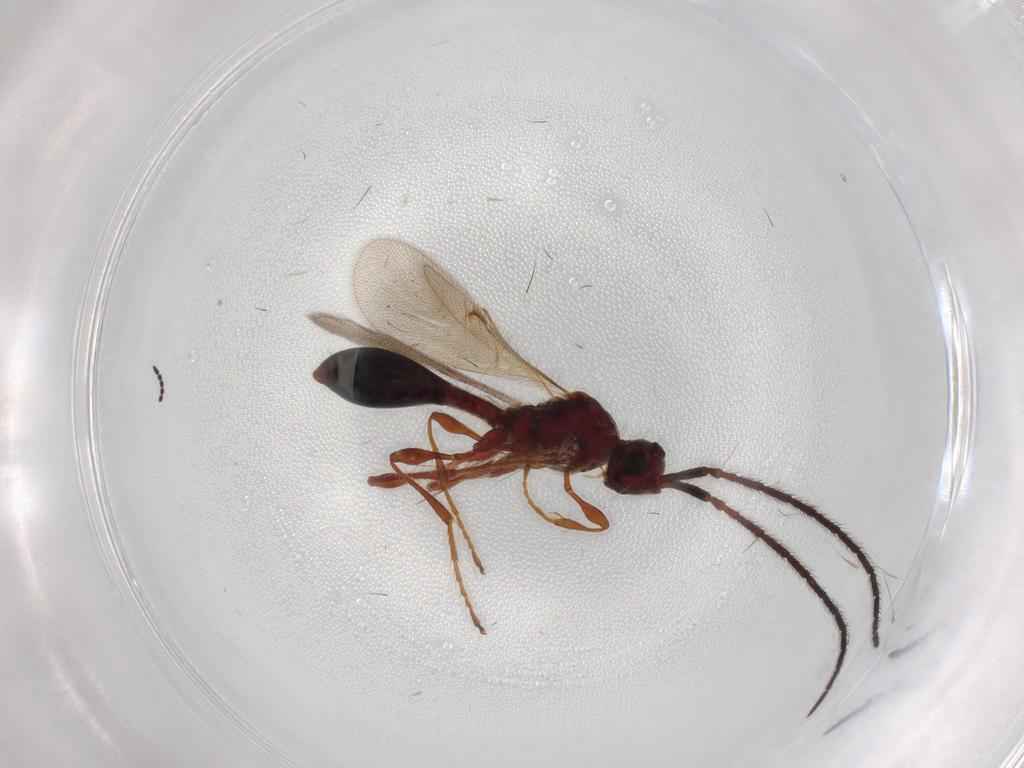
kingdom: Animalia
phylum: Arthropoda
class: Insecta
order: Hymenoptera
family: Diapriidae
